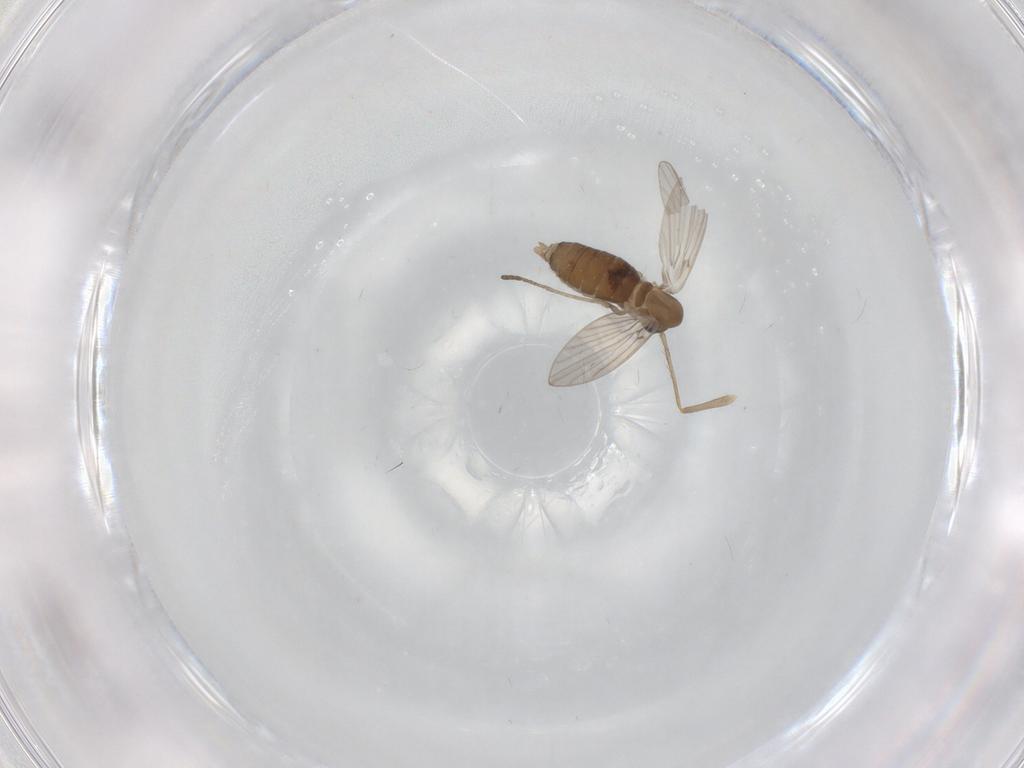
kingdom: Animalia
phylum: Arthropoda
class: Insecta
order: Diptera
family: Chironomidae
